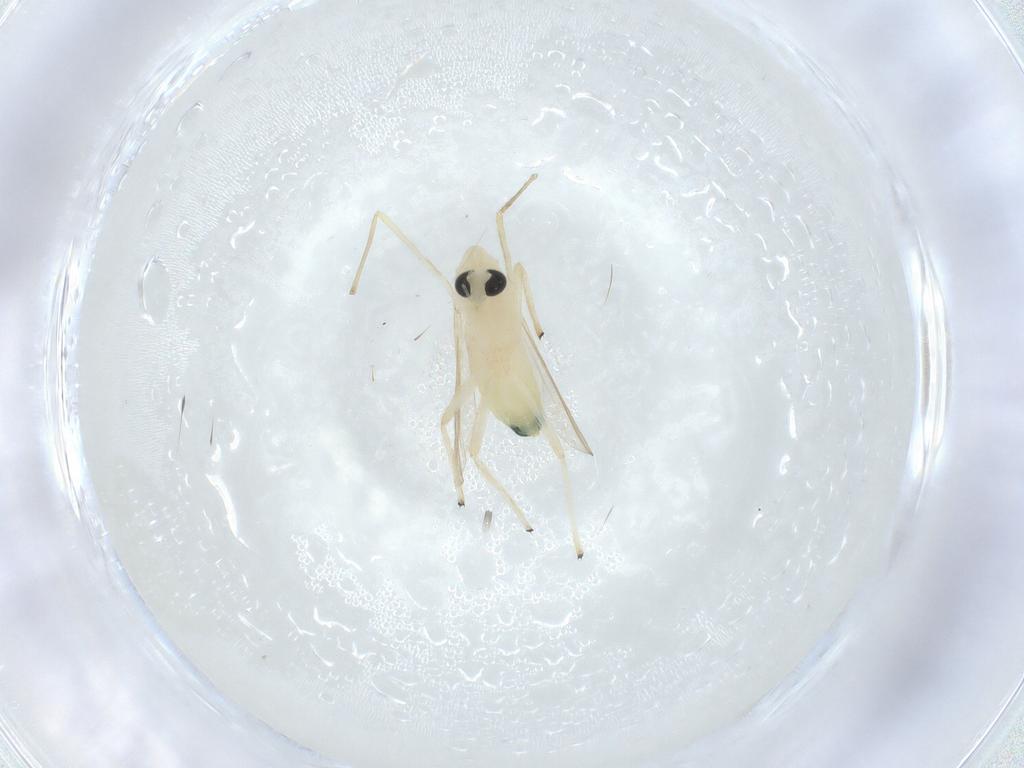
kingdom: Animalia
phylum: Arthropoda
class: Insecta
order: Diptera
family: Chironomidae
